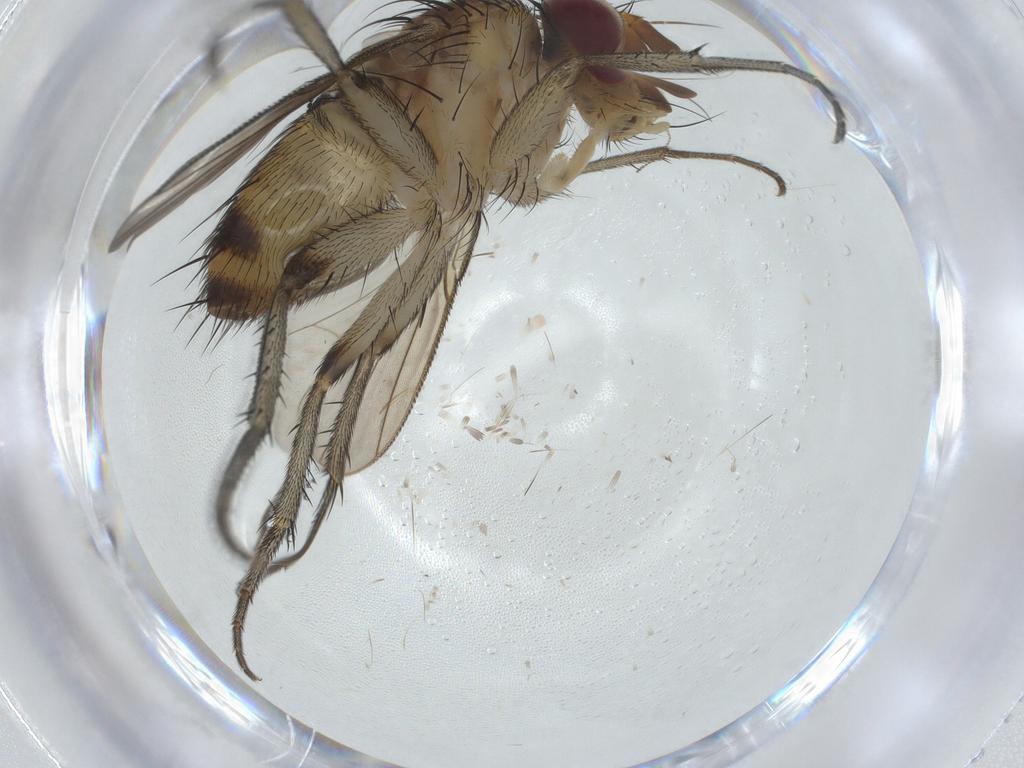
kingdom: Animalia
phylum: Arthropoda
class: Insecta
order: Diptera
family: Tachinidae
